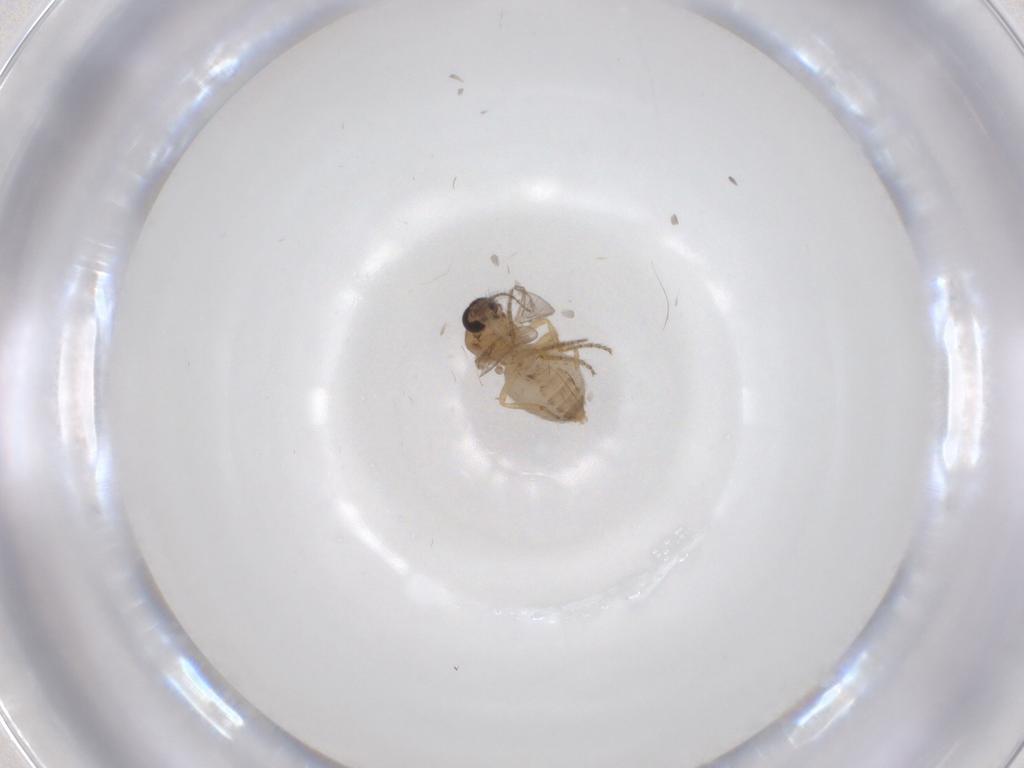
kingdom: Animalia
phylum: Arthropoda
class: Insecta
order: Diptera
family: Ceratopogonidae
